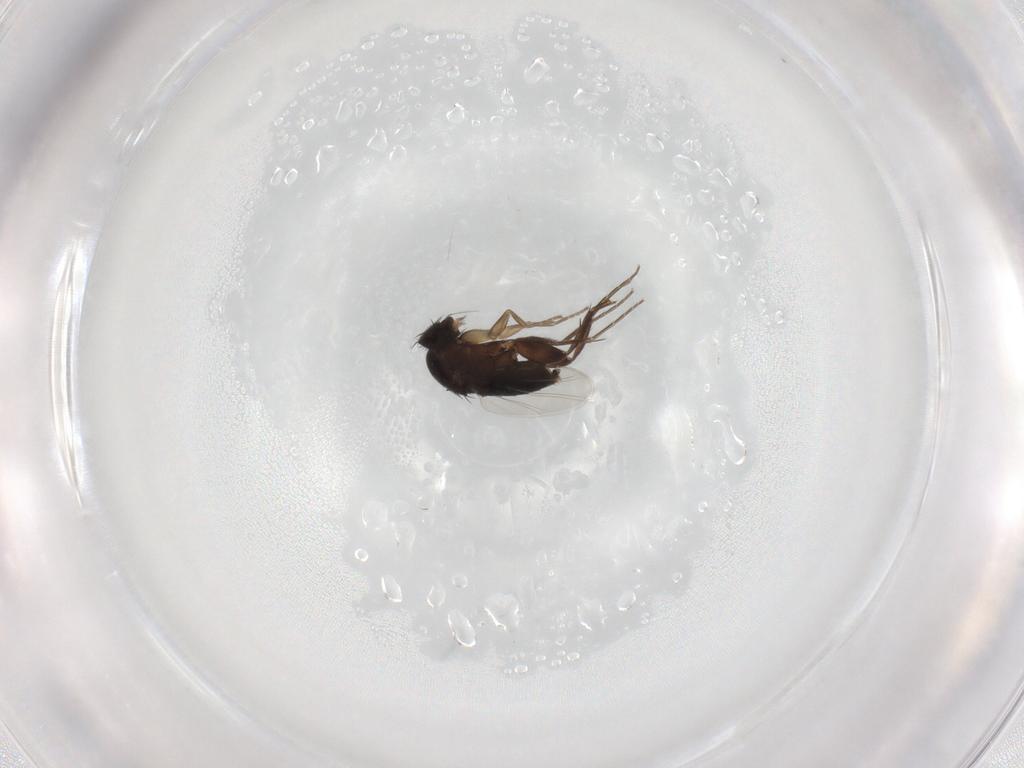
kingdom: Animalia
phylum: Arthropoda
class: Insecta
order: Diptera
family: Phoridae
